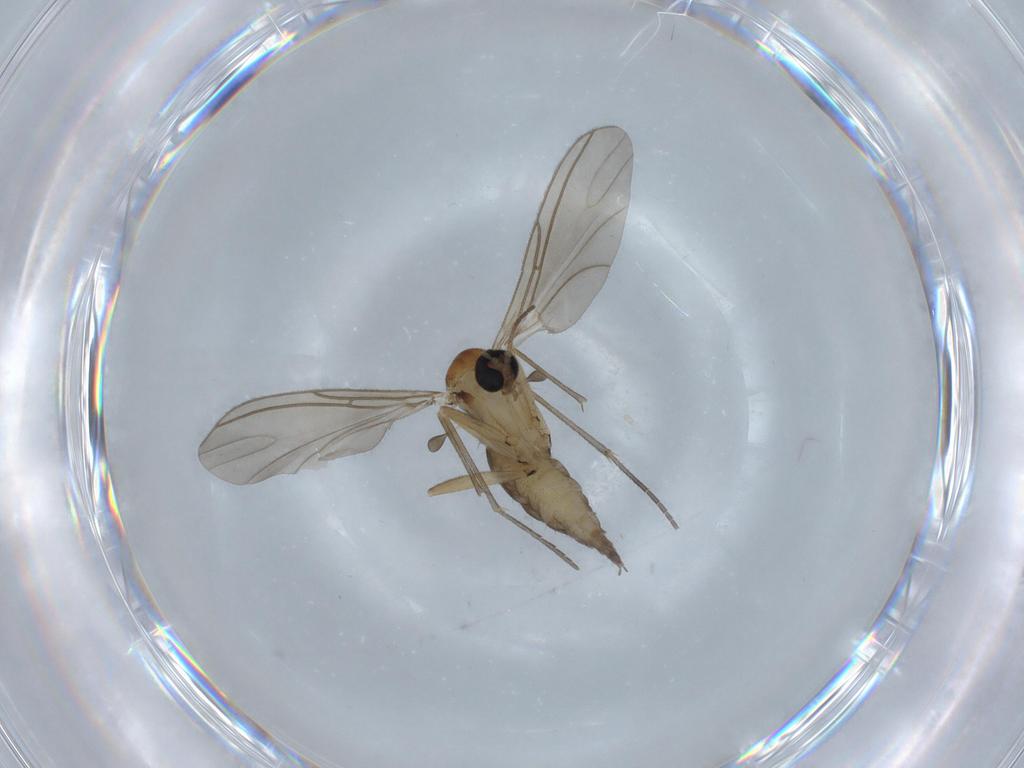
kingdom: Animalia
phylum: Arthropoda
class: Insecta
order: Diptera
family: Sciaridae
